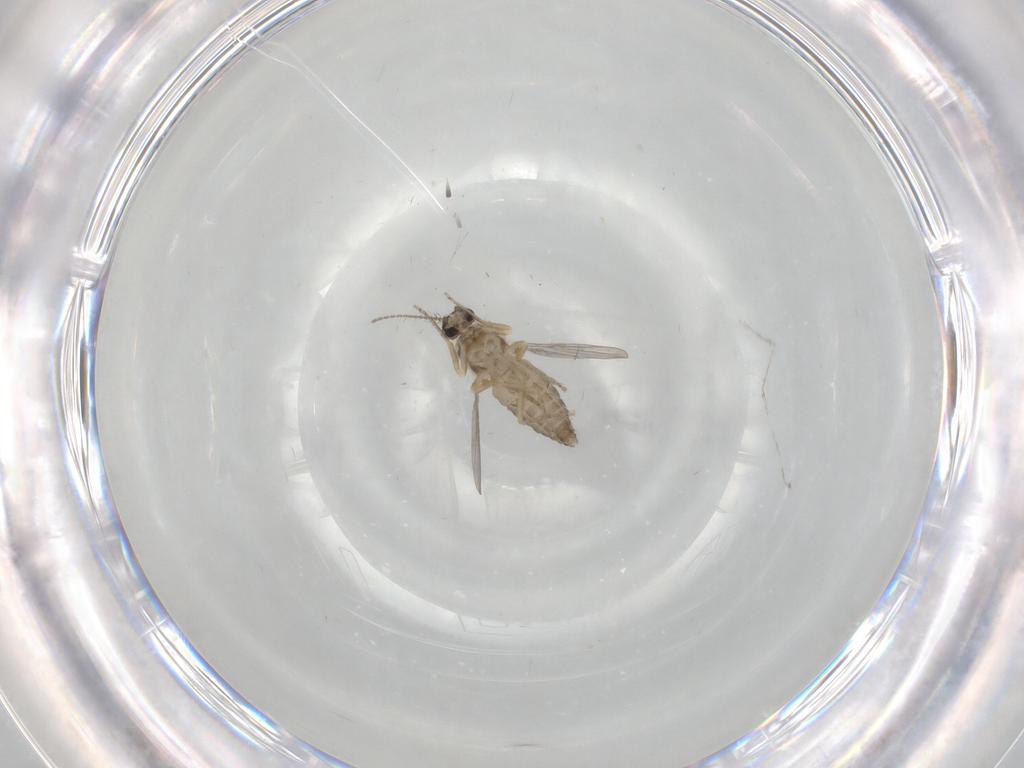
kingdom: Animalia
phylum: Arthropoda
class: Insecta
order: Diptera
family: Ceratopogonidae
